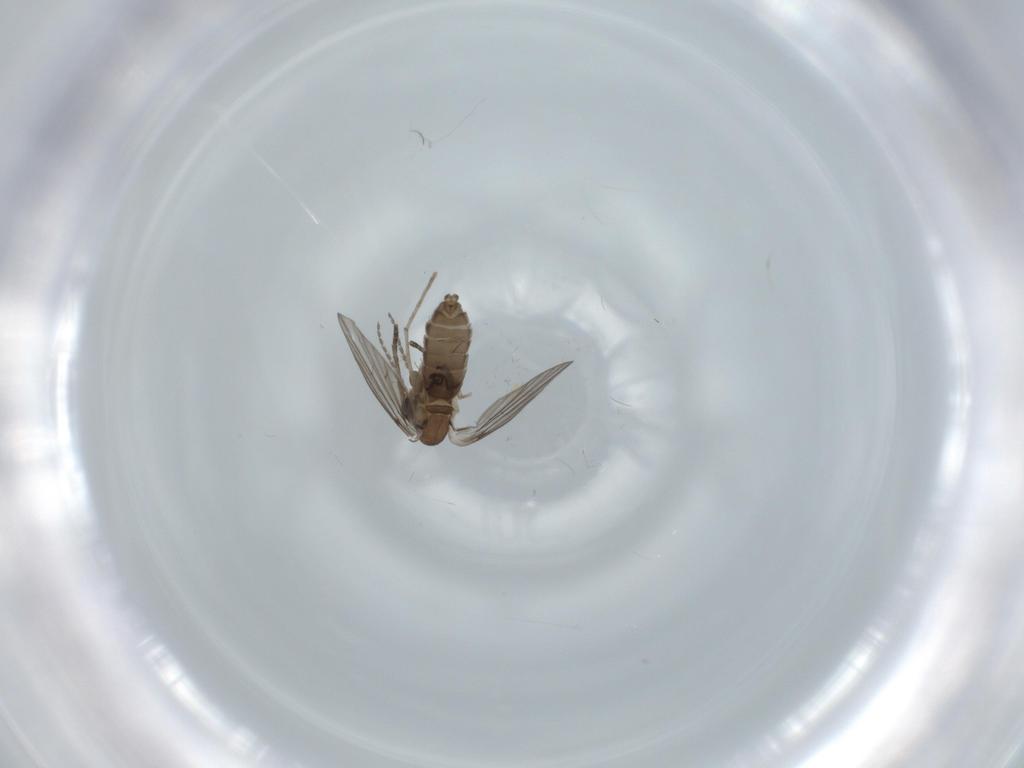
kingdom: Animalia
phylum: Arthropoda
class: Insecta
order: Diptera
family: Psychodidae
